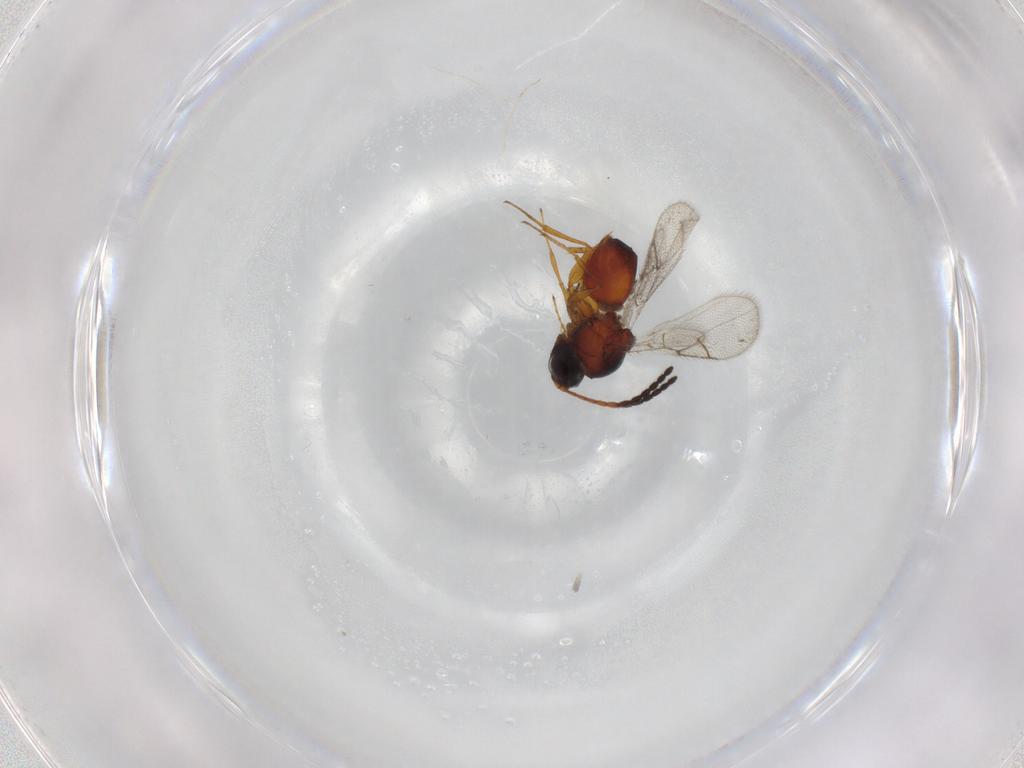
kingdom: Animalia
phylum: Arthropoda
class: Insecta
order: Hymenoptera
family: Figitidae
